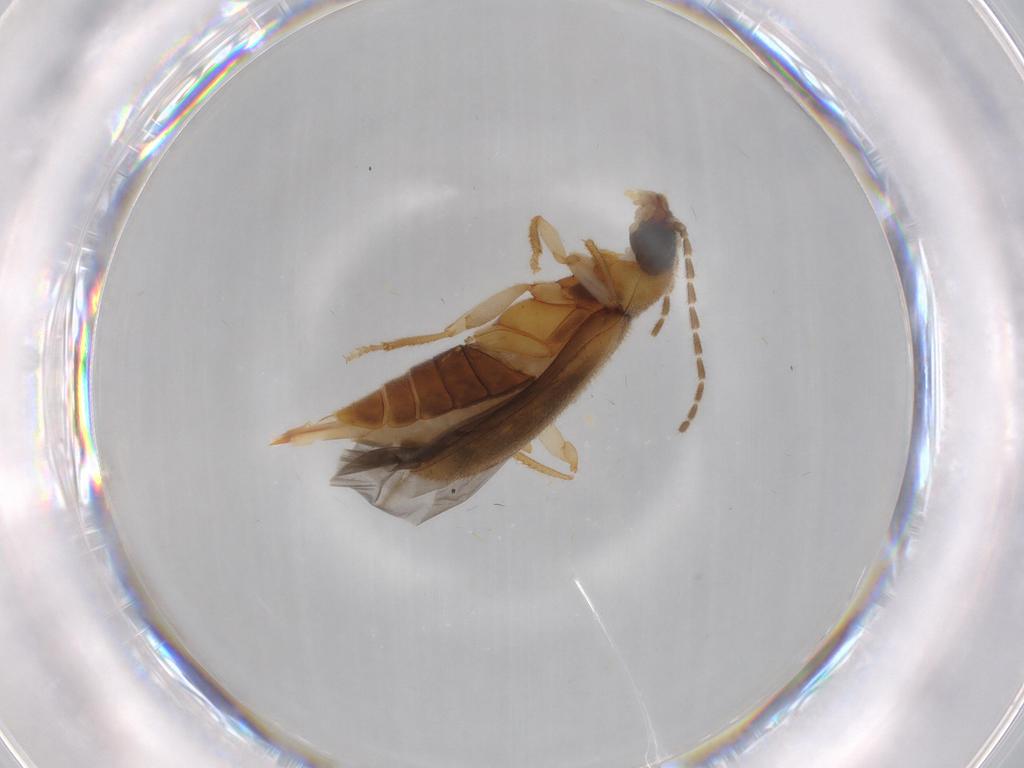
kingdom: Animalia
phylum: Arthropoda
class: Insecta
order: Coleoptera
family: Ptilodactylidae
